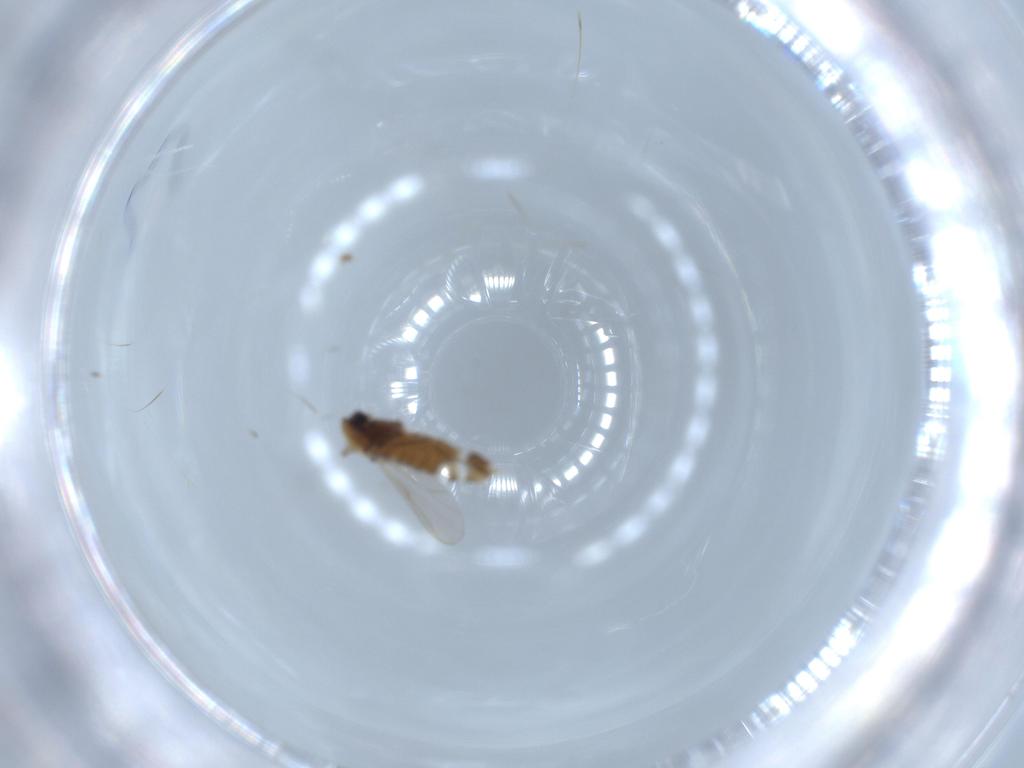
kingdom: Animalia
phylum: Arthropoda
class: Insecta
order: Diptera
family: Chironomidae
